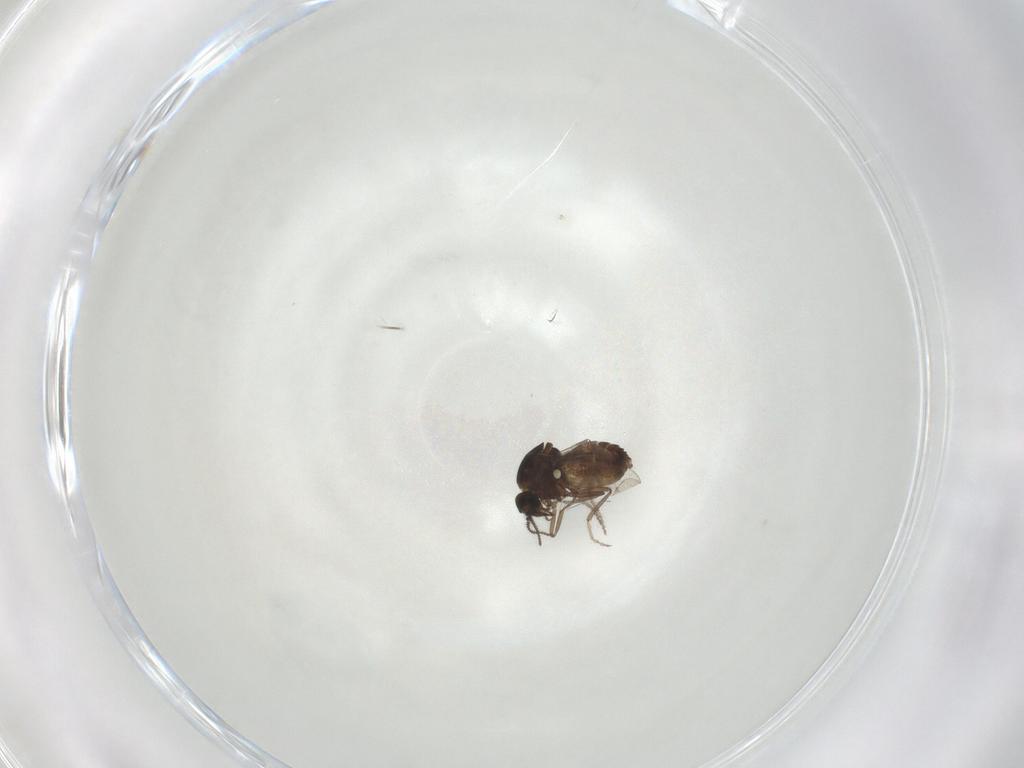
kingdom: Animalia
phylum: Arthropoda
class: Insecta
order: Diptera
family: Ceratopogonidae
